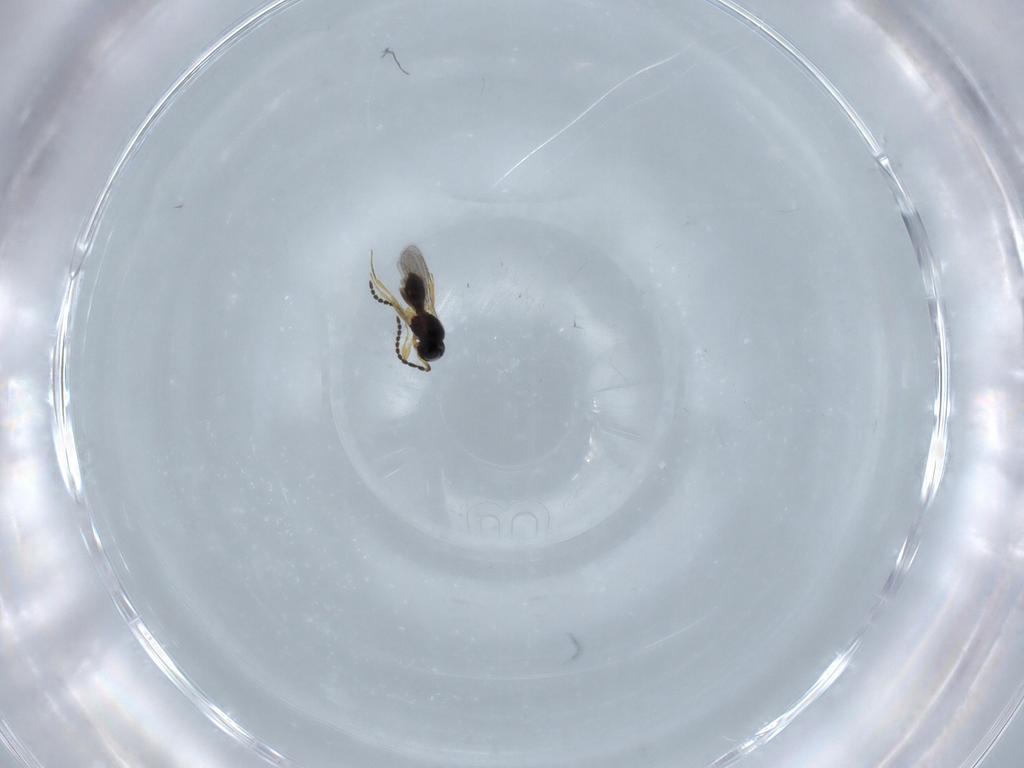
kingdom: Animalia
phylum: Arthropoda
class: Insecta
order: Hymenoptera
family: Scelionidae
